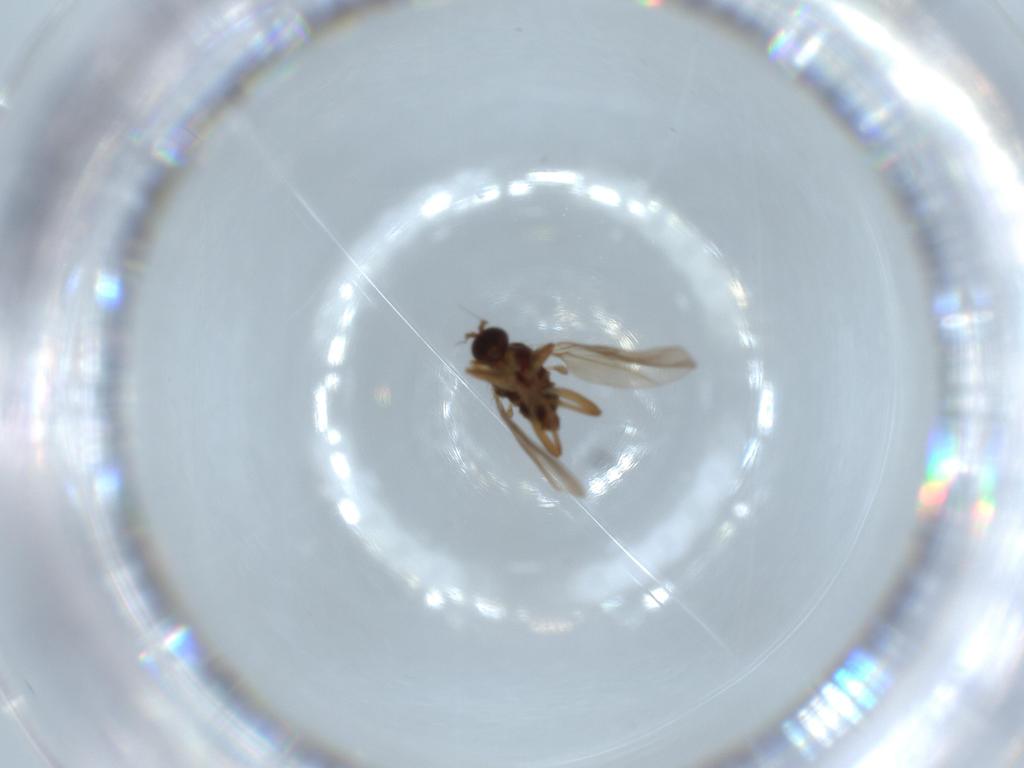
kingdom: Animalia
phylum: Arthropoda
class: Insecta
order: Diptera
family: Hybotidae
